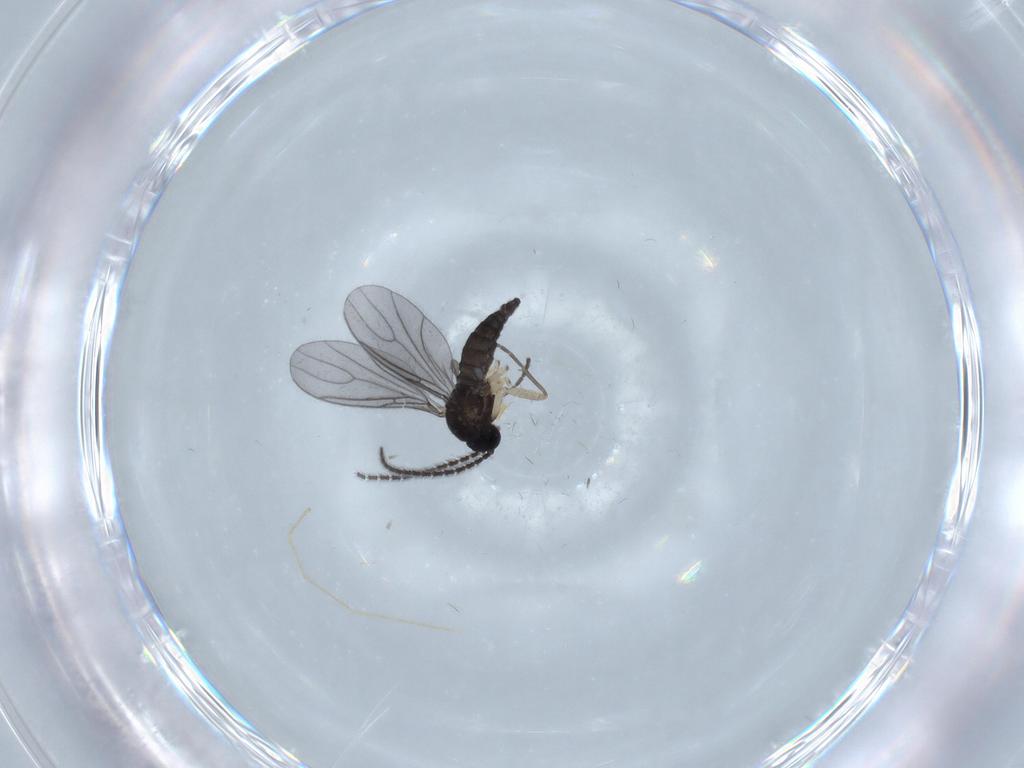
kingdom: Animalia
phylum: Arthropoda
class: Insecta
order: Diptera
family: Sciaridae
